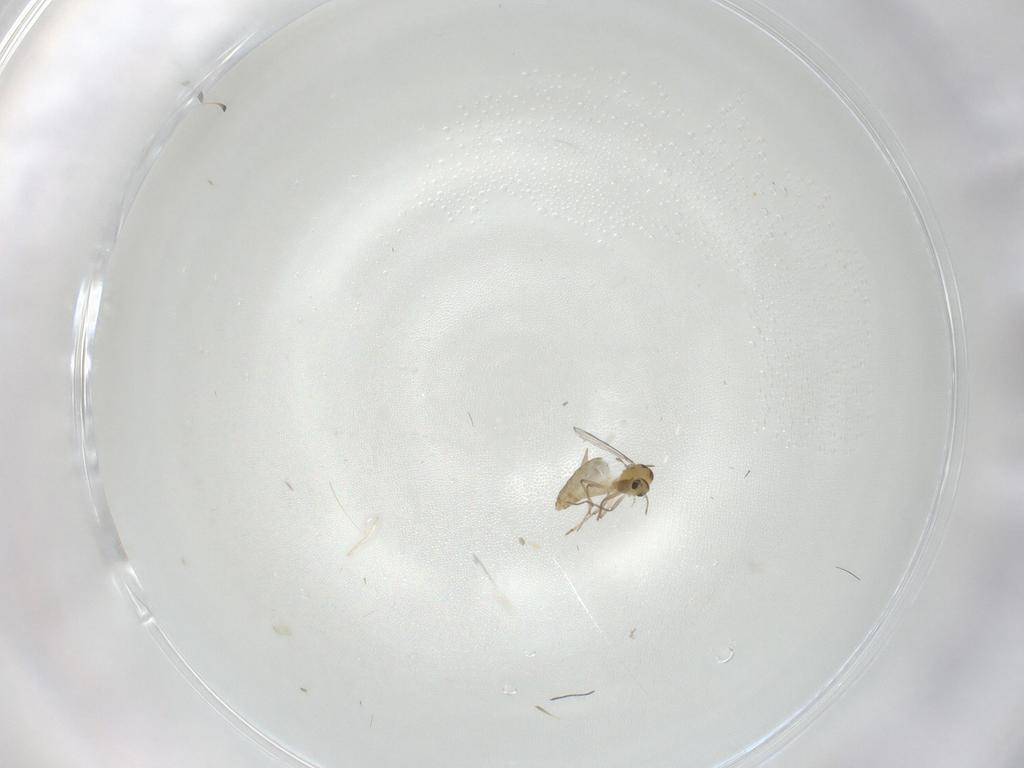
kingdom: Animalia
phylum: Arthropoda
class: Insecta
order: Diptera
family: Chironomidae
